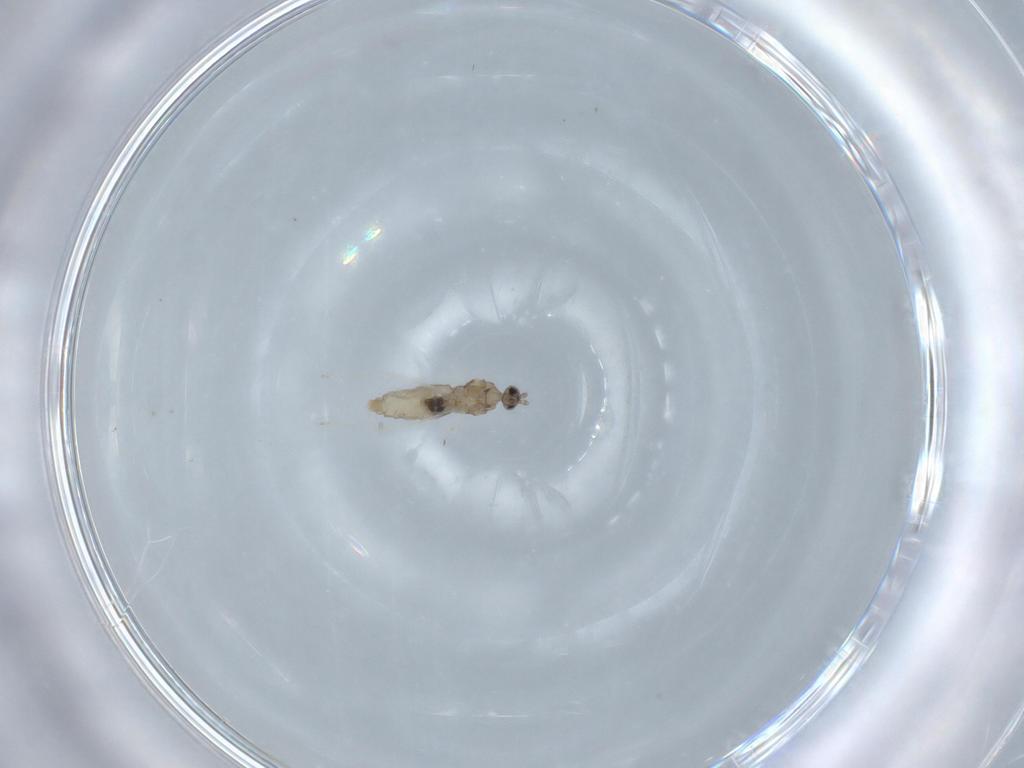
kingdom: Animalia
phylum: Arthropoda
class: Insecta
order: Diptera
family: Cecidomyiidae
